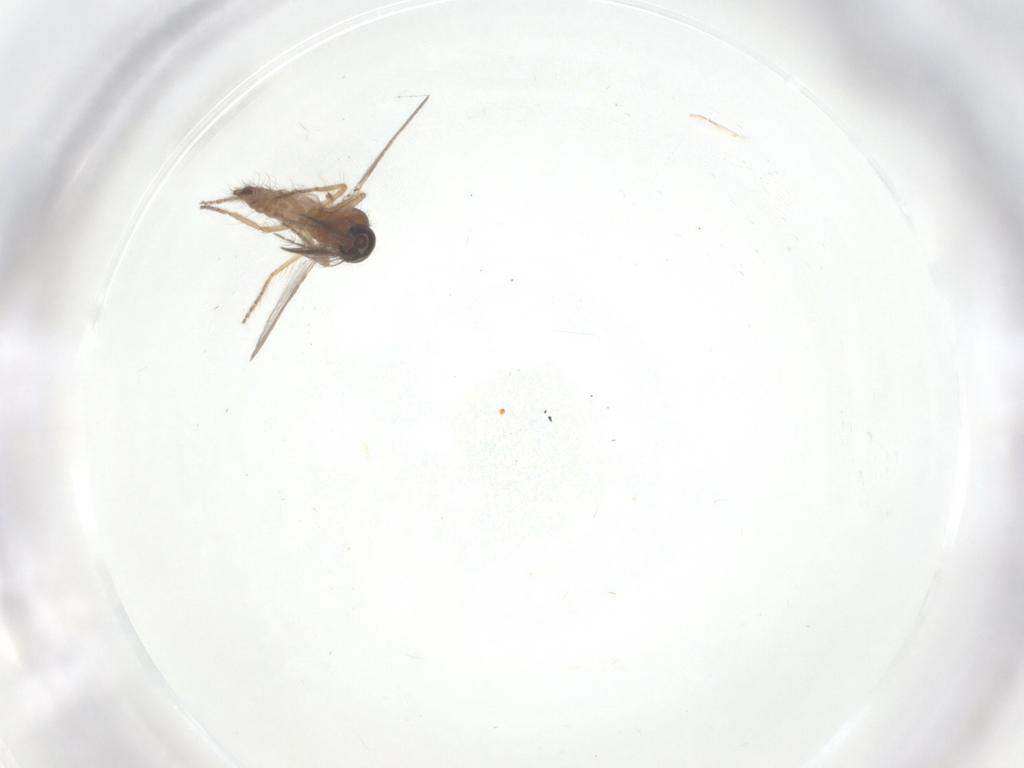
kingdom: Animalia
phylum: Arthropoda
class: Insecta
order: Diptera
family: Ceratopogonidae
